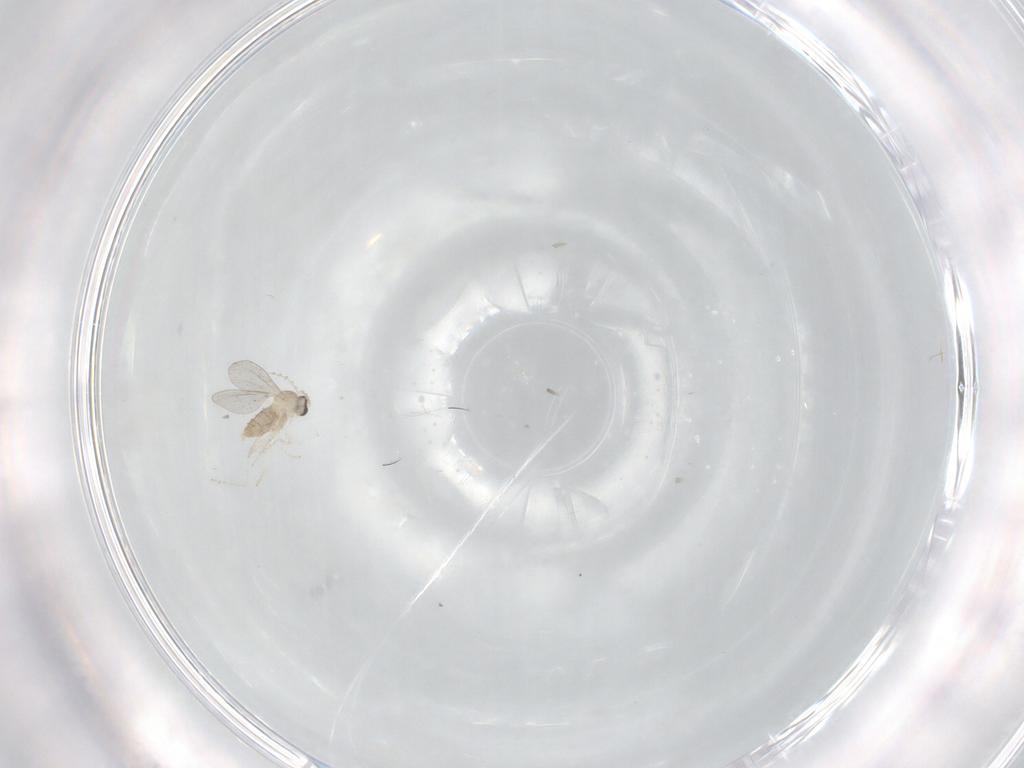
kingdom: Animalia
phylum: Arthropoda
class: Insecta
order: Diptera
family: Cecidomyiidae
